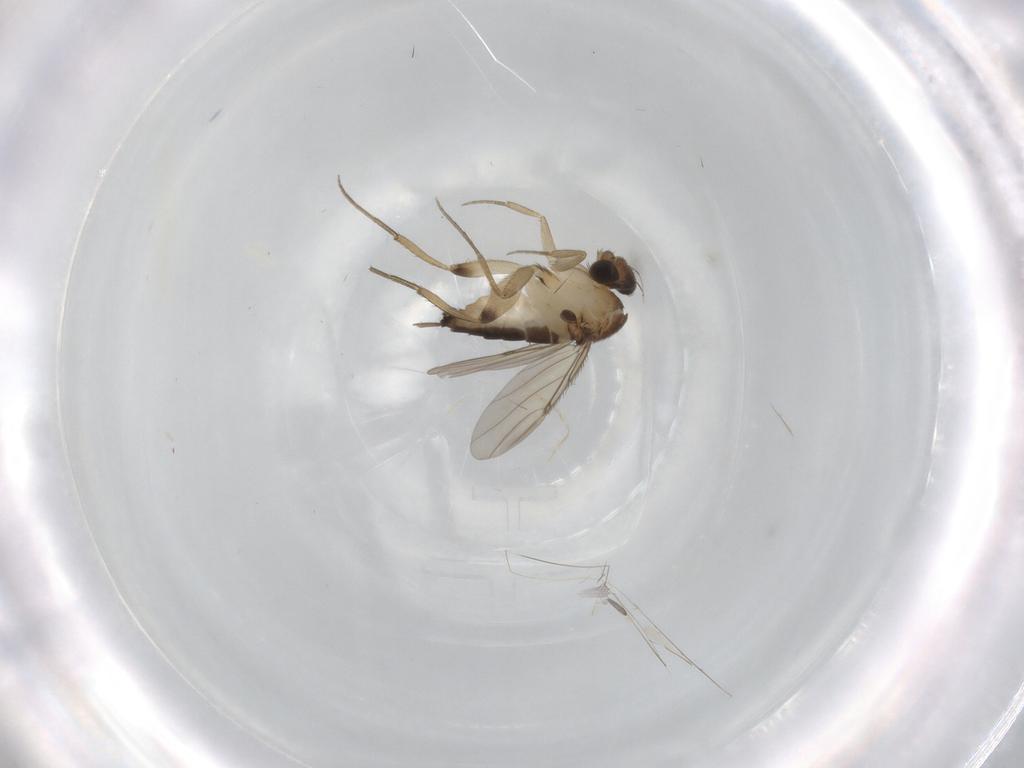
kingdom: Animalia
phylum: Arthropoda
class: Insecta
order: Diptera
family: Phoridae
